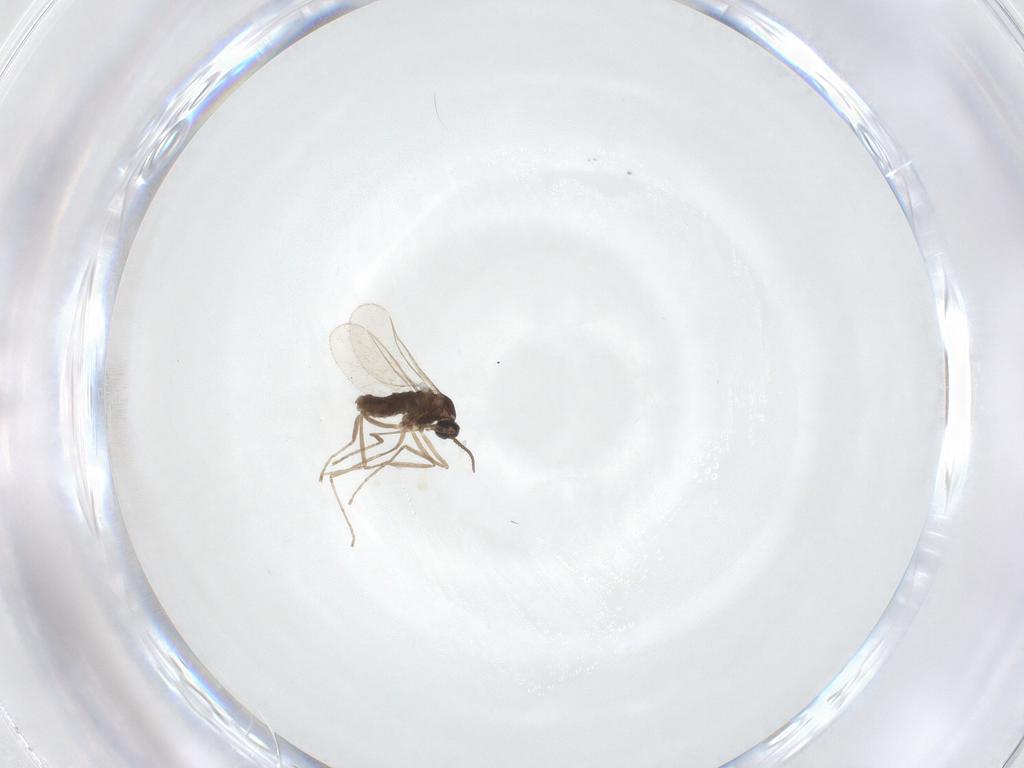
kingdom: Animalia
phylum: Arthropoda
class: Insecta
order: Diptera
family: Cecidomyiidae
